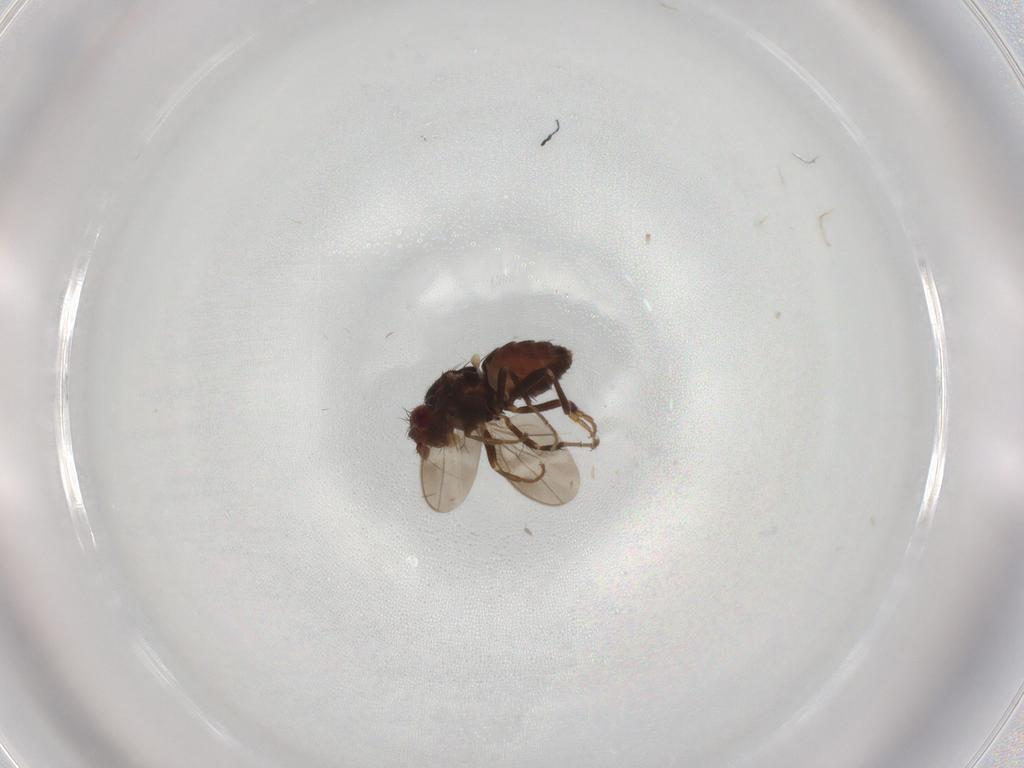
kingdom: Animalia
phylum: Arthropoda
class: Insecta
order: Diptera
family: Sphaeroceridae
